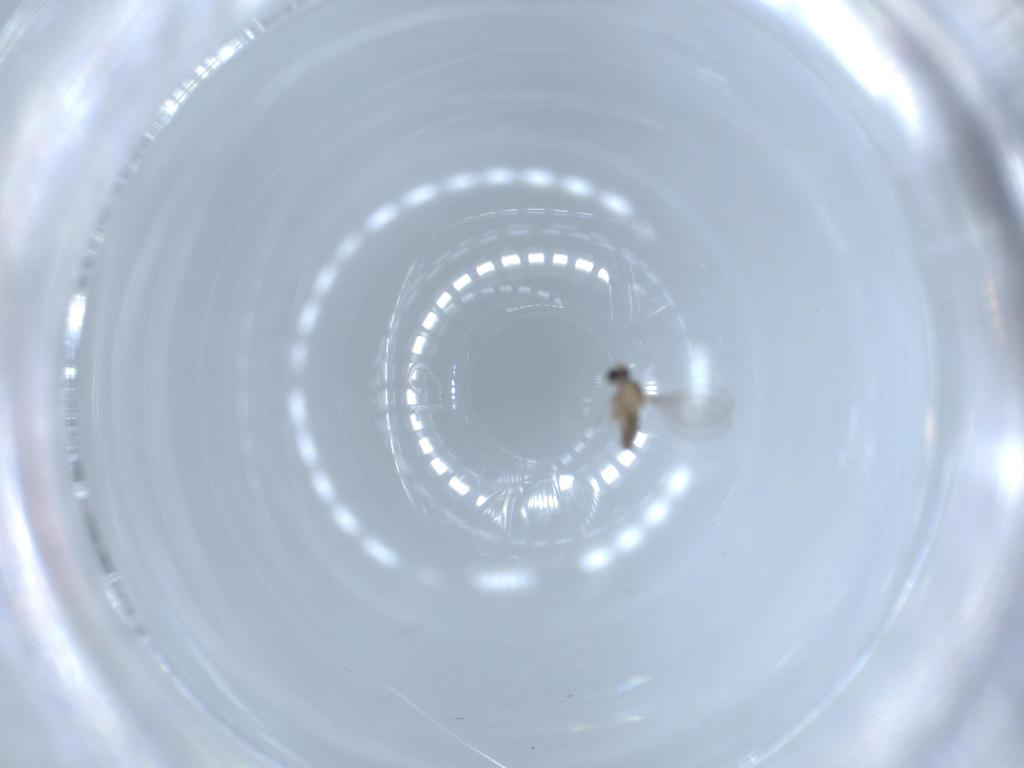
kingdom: Animalia
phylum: Arthropoda
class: Insecta
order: Diptera
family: Cecidomyiidae
